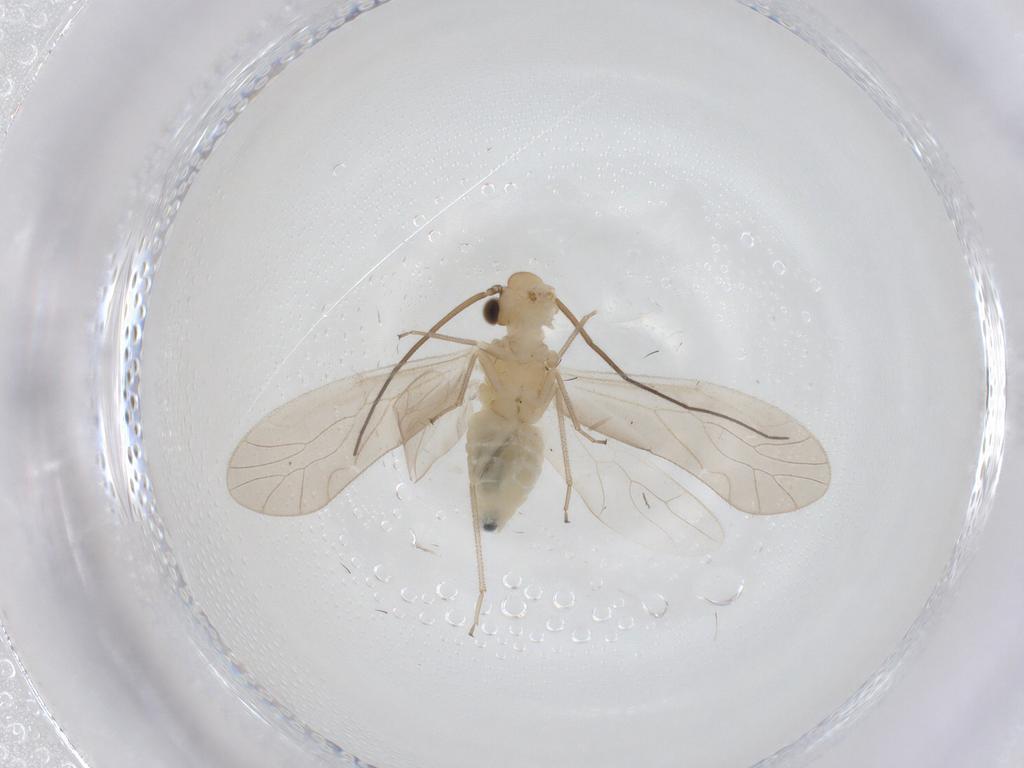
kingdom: Animalia
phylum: Arthropoda
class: Insecta
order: Psocodea
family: Caeciliusidae
